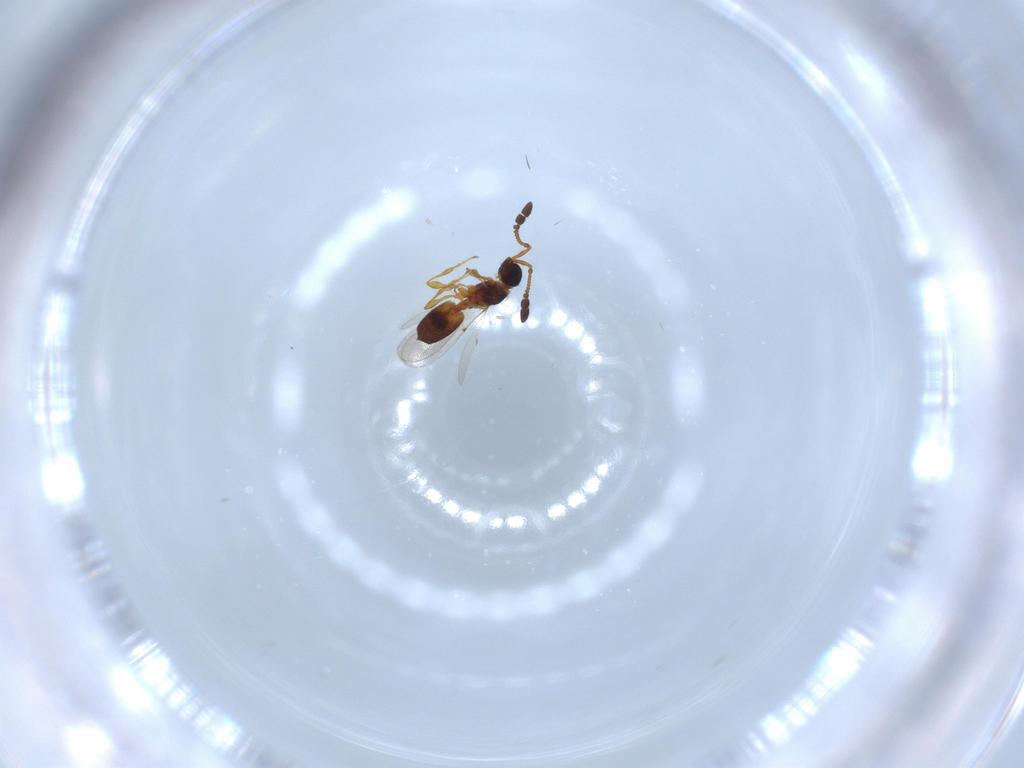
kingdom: Animalia
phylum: Arthropoda
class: Insecta
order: Hymenoptera
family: Diapriidae
